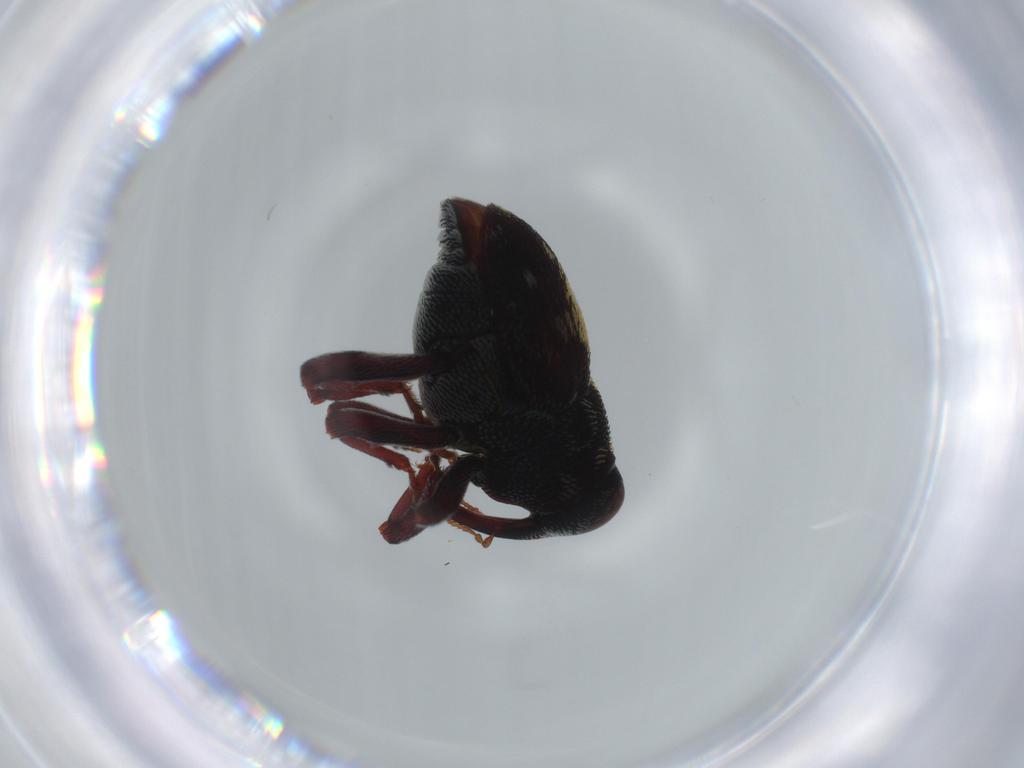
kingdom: Animalia
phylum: Arthropoda
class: Insecta
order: Coleoptera
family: Curculionidae
